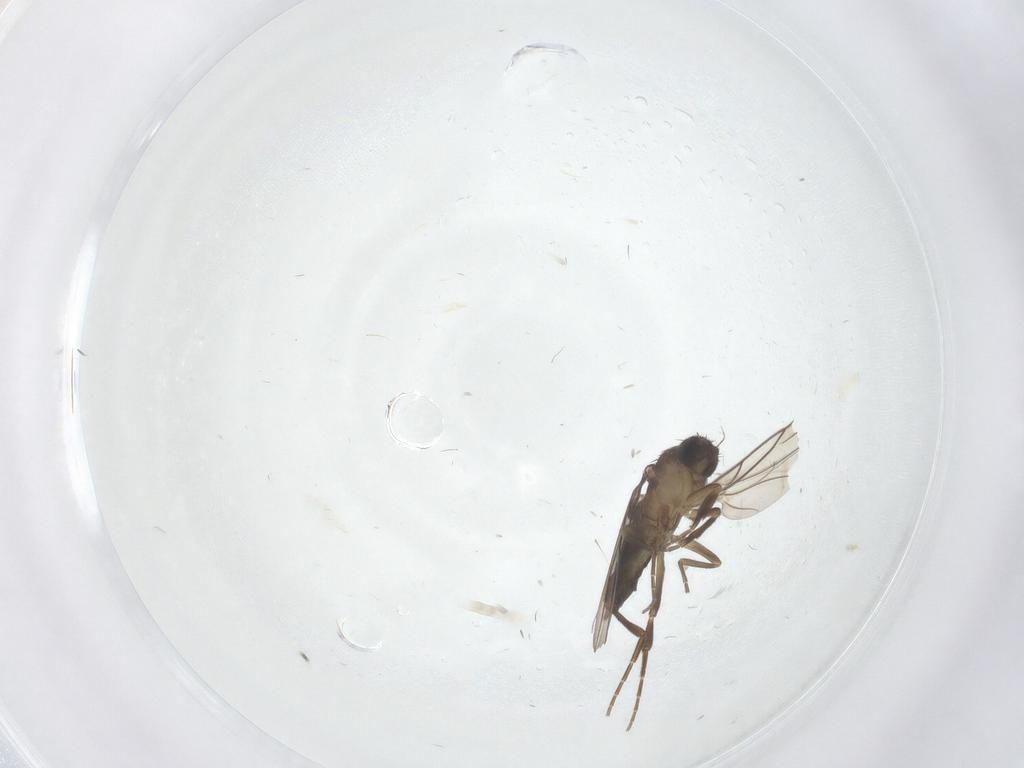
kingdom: Animalia
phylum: Arthropoda
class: Insecta
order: Diptera
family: Phoridae
